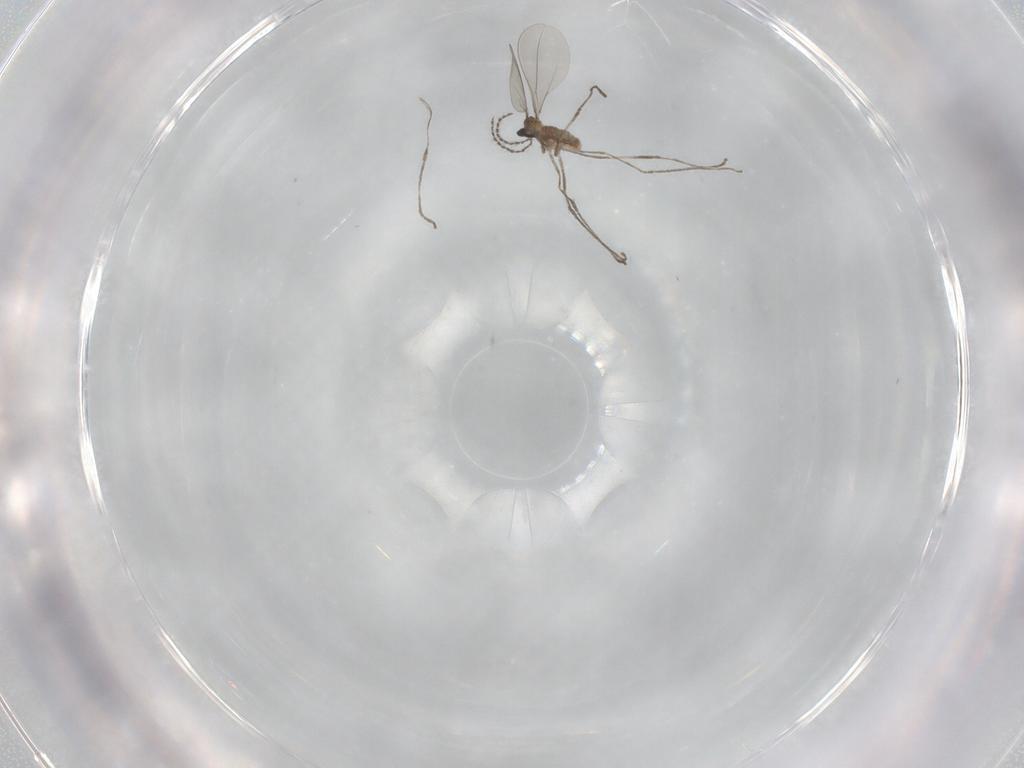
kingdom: Animalia
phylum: Arthropoda
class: Insecta
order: Diptera
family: Cecidomyiidae
